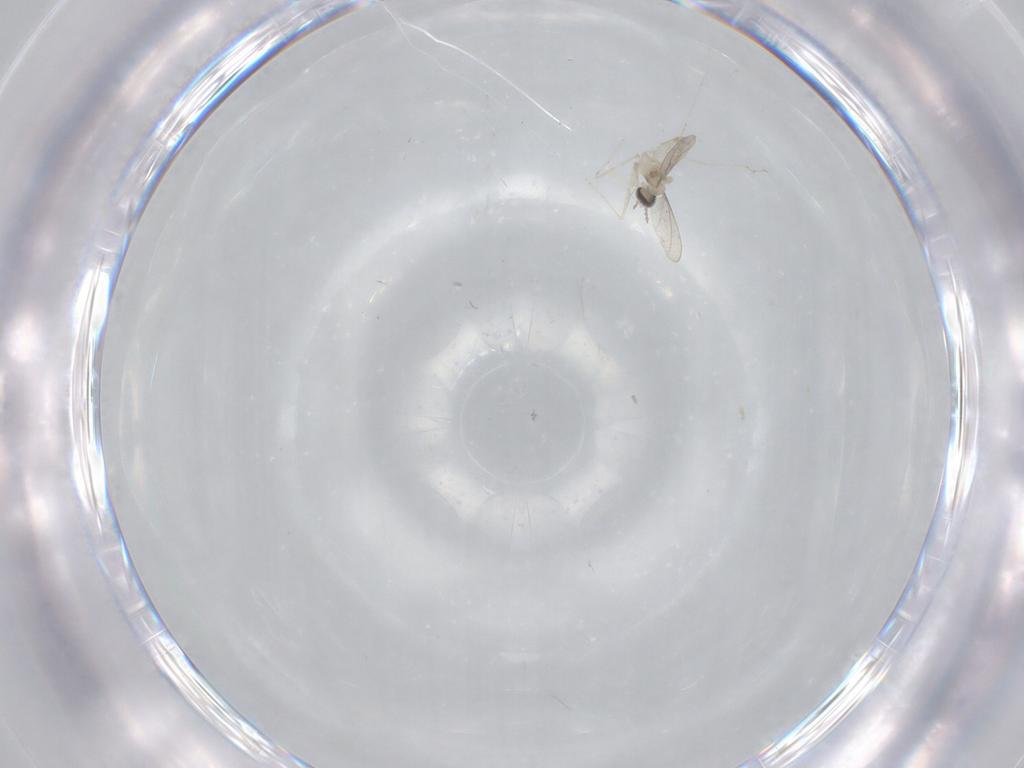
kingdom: Animalia
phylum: Arthropoda
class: Insecta
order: Diptera
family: Cecidomyiidae
